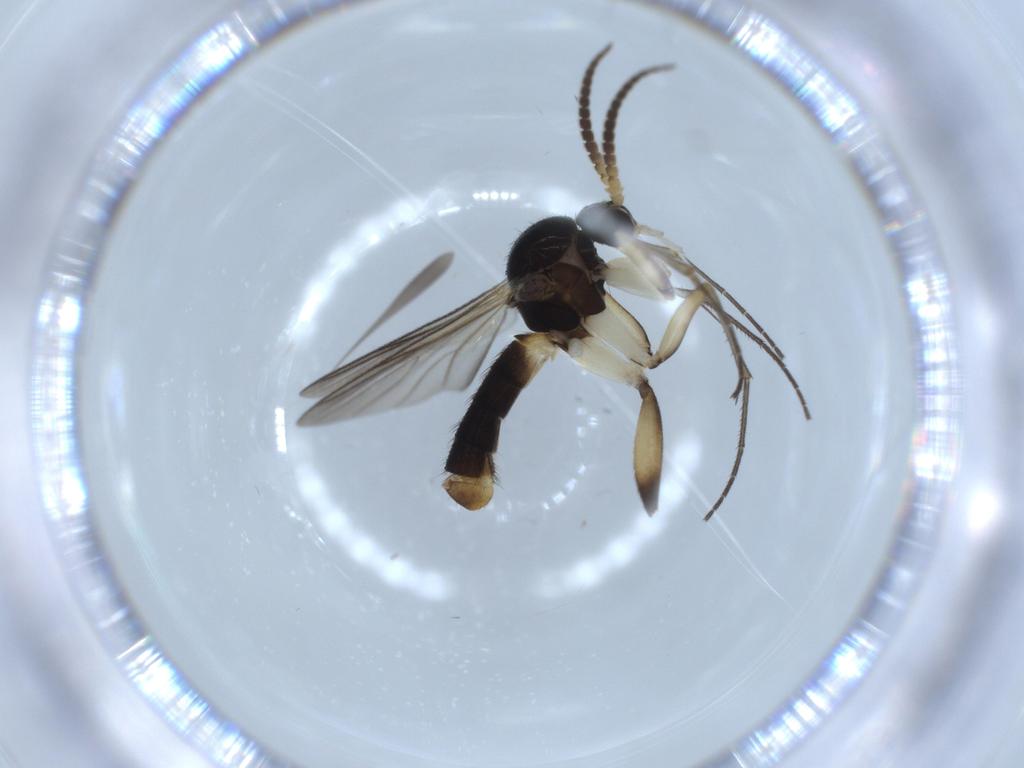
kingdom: Animalia
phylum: Arthropoda
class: Insecta
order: Diptera
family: Mycetophilidae
